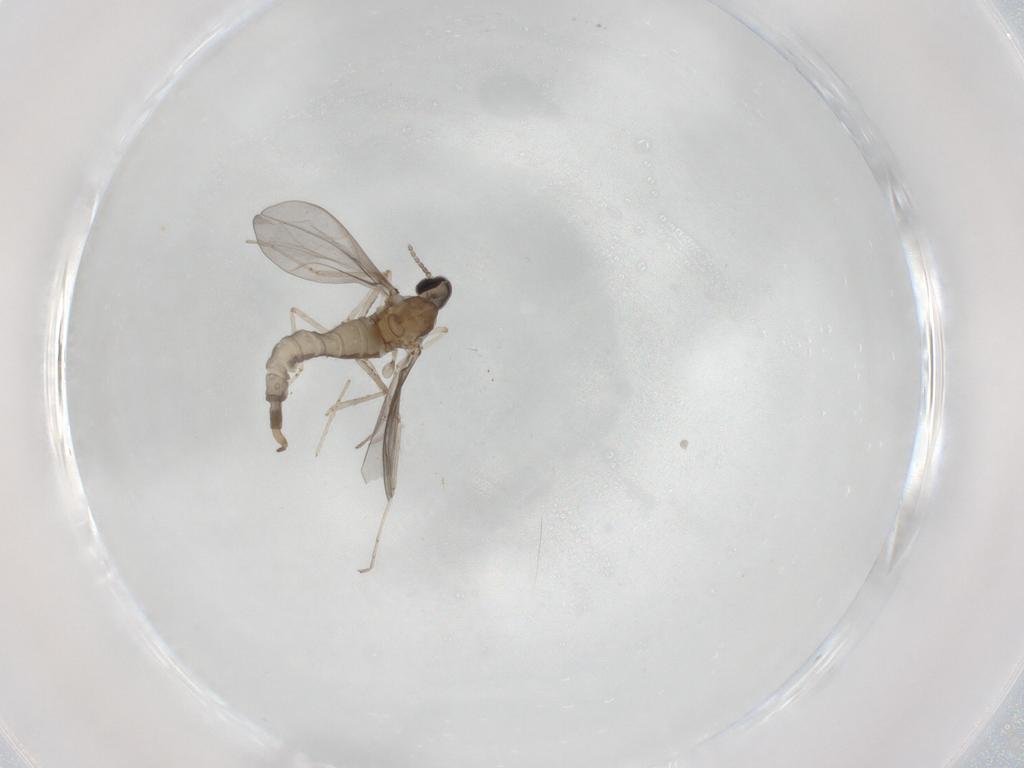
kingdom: Animalia
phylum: Arthropoda
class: Insecta
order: Diptera
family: Cecidomyiidae
